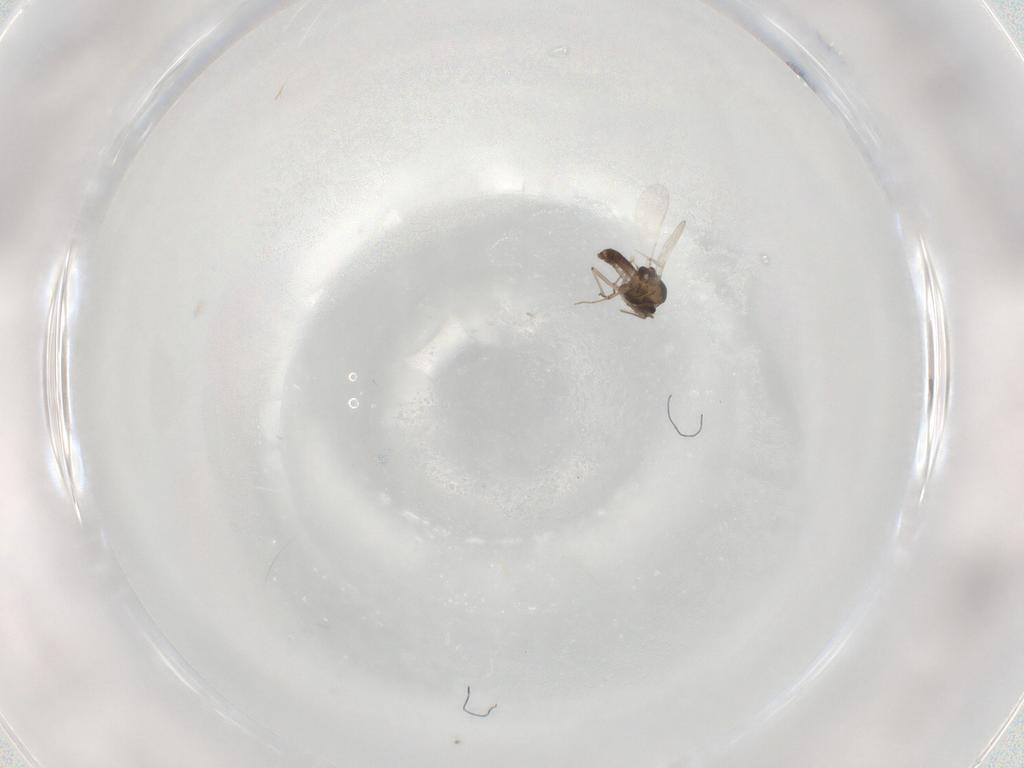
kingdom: Animalia
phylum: Arthropoda
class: Insecta
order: Diptera
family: Chironomidae
